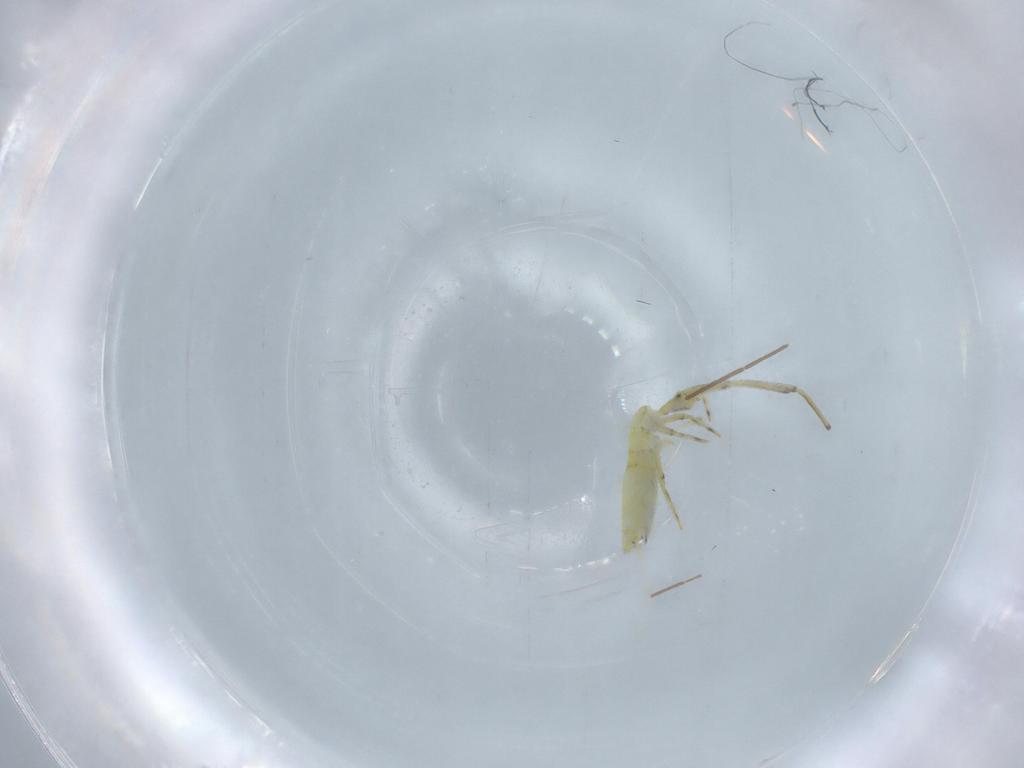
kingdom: Animalia
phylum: Arthropoda
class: Collembola
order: Entomobryomorpha
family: Paronellidae
